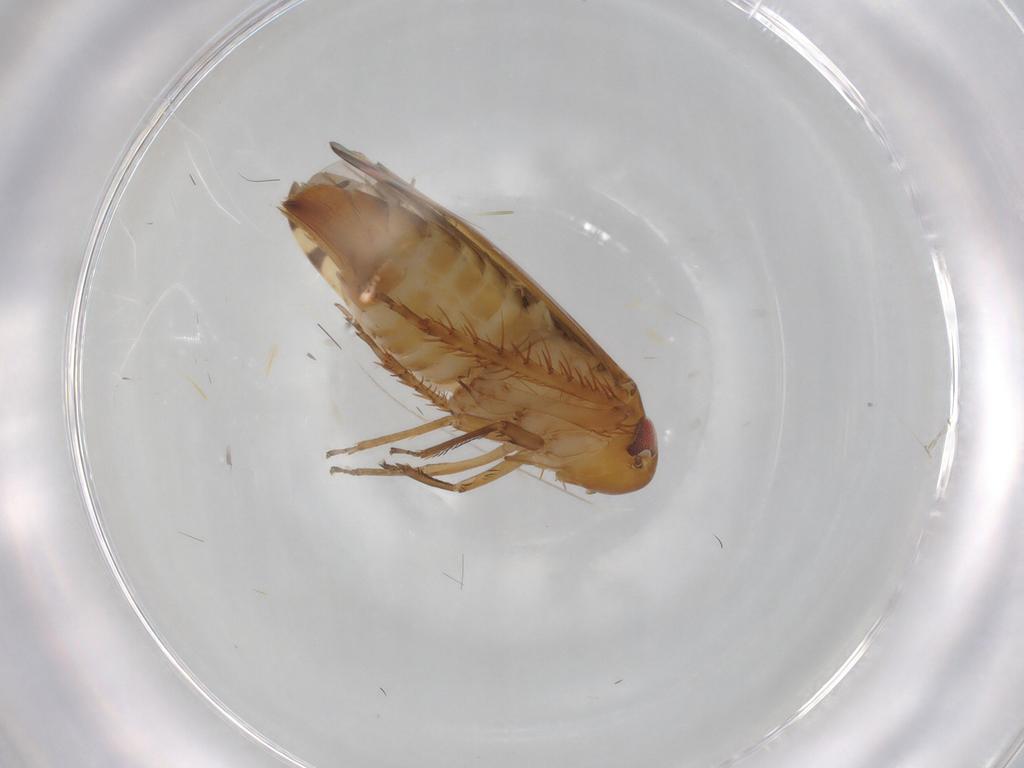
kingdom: Animalia
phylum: Arthropoda
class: Insecta
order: Hemiptera
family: Cicadellidae
